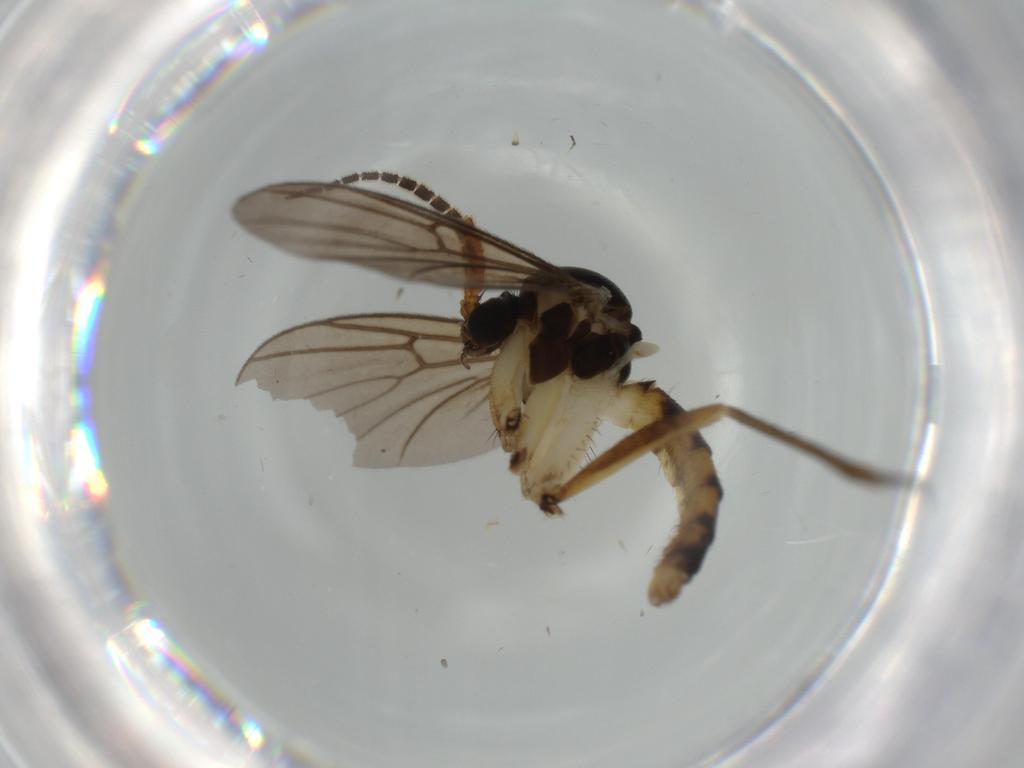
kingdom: Animalia
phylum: Arthropoda
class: Insecta
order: Diptera
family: Cecidomyiidae
